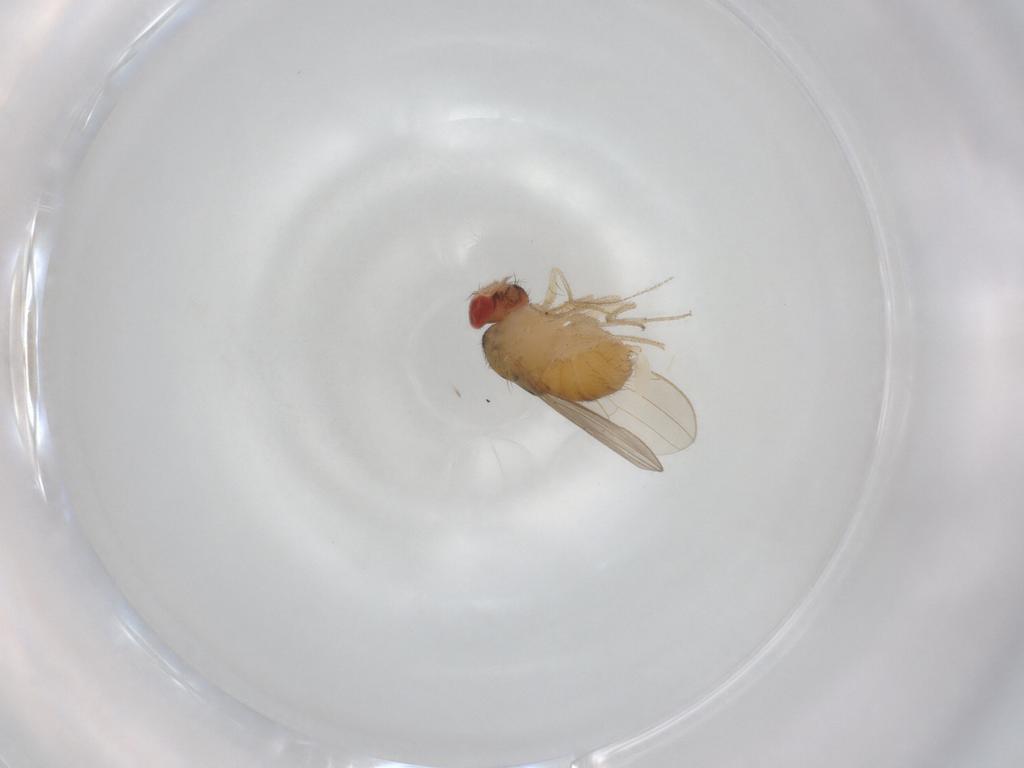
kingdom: Animalia
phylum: Arthropoda
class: Insecta
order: Diptera
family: Drosophilidae
